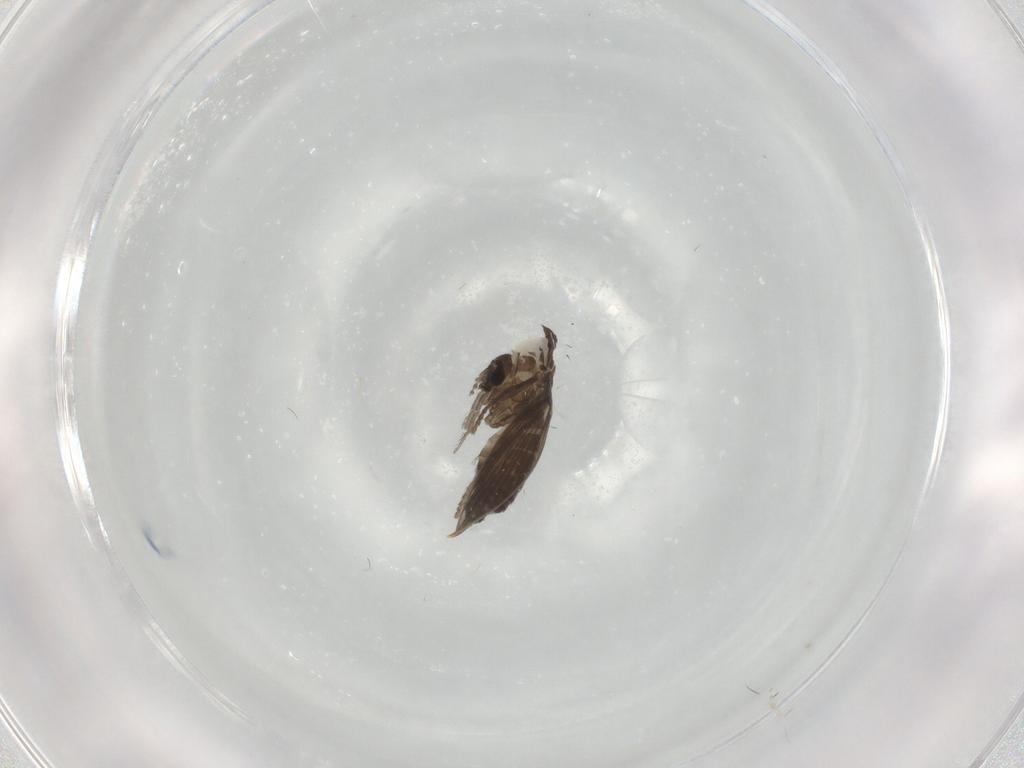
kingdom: Animalia
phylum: Arthropoda
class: Insecta
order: Diptera
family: Psychodidae
